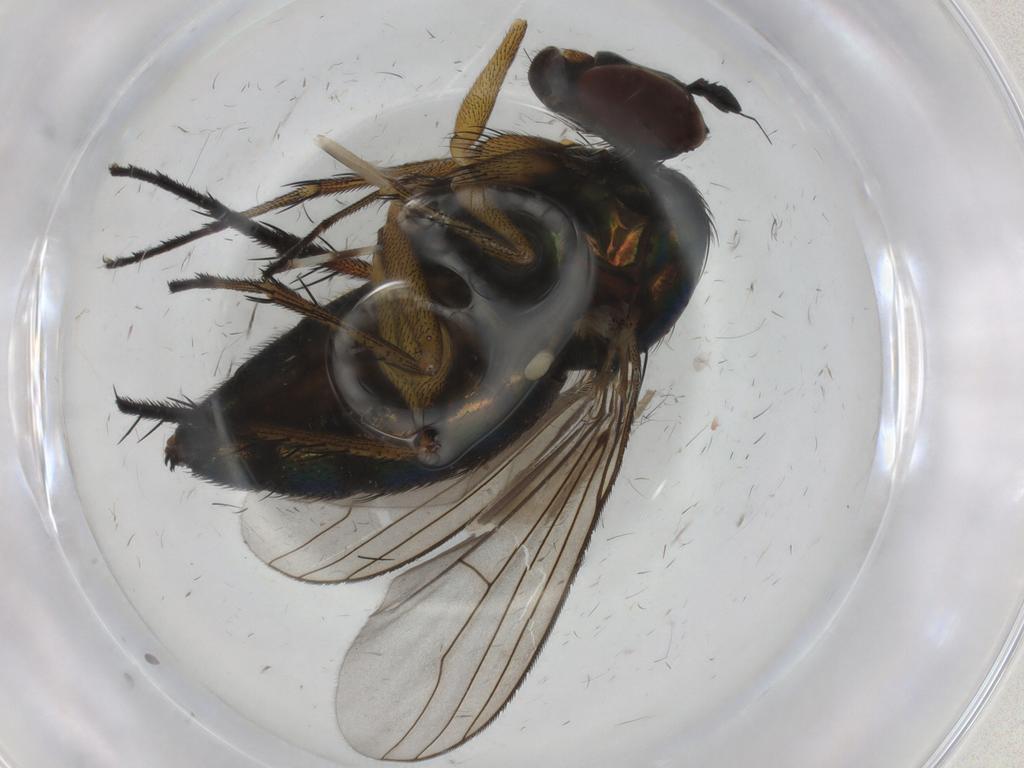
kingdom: Animalia
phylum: Arthropoda
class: Insecta
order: Diptera
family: Dolichopodidae
